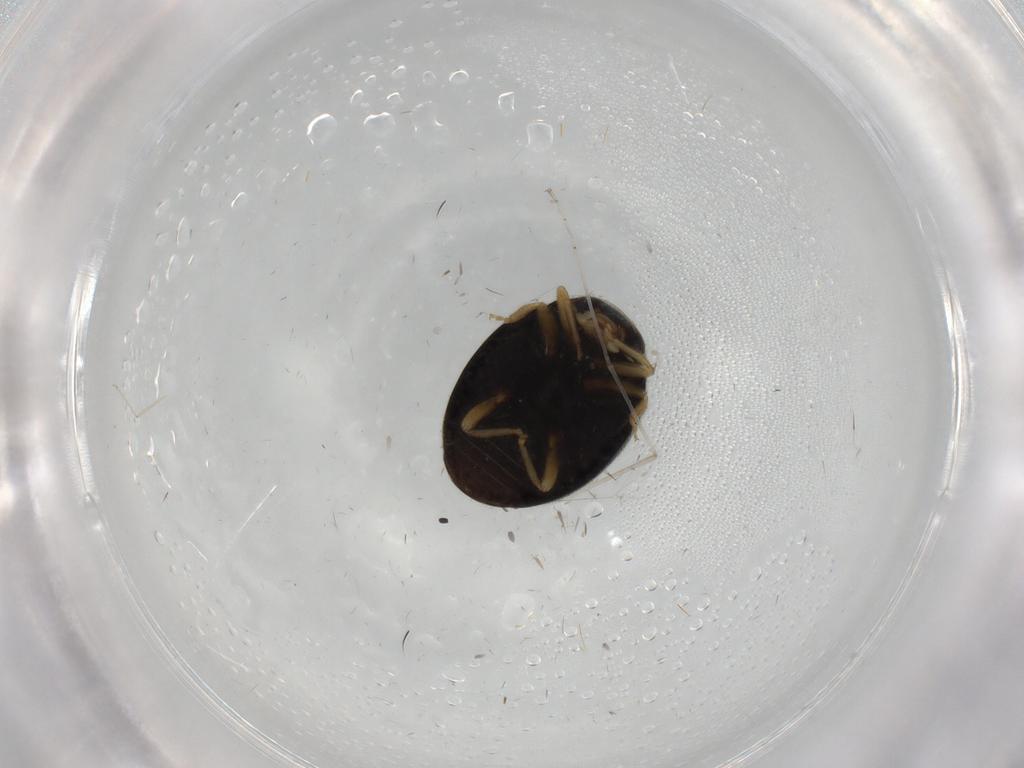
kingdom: Animalia
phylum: Arthropoda
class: Insecta
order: Coleoptera
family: Coccinellidae
